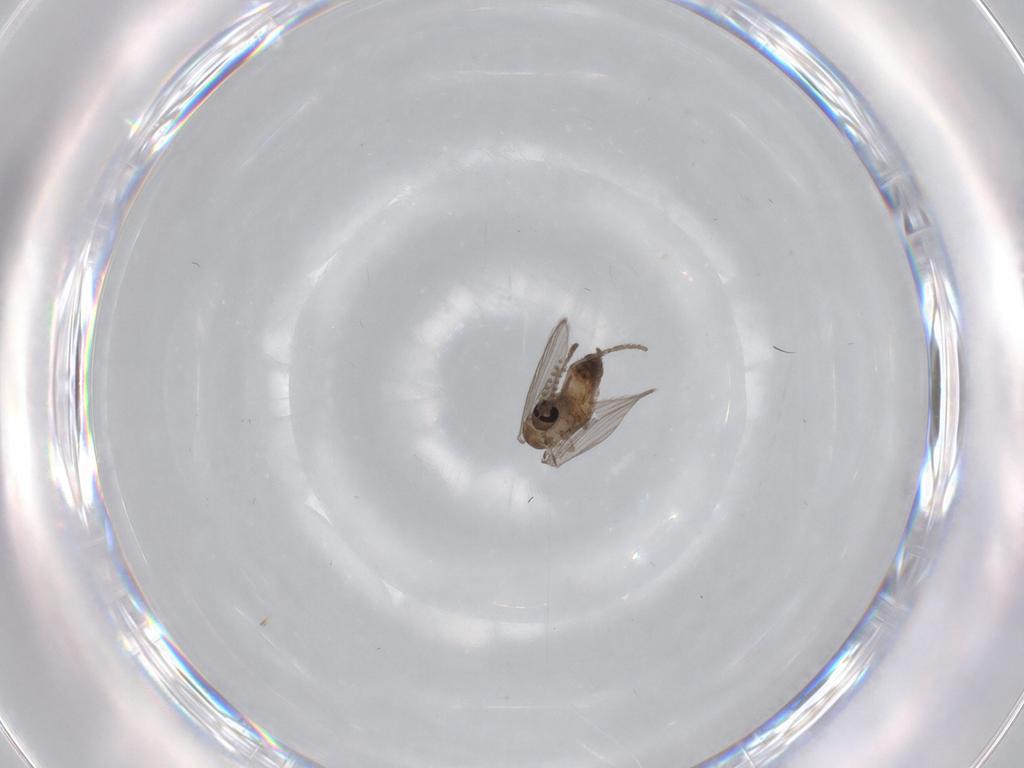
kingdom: Animalia
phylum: Arthropoda
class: Insecta
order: Diptera
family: Psychodidae
